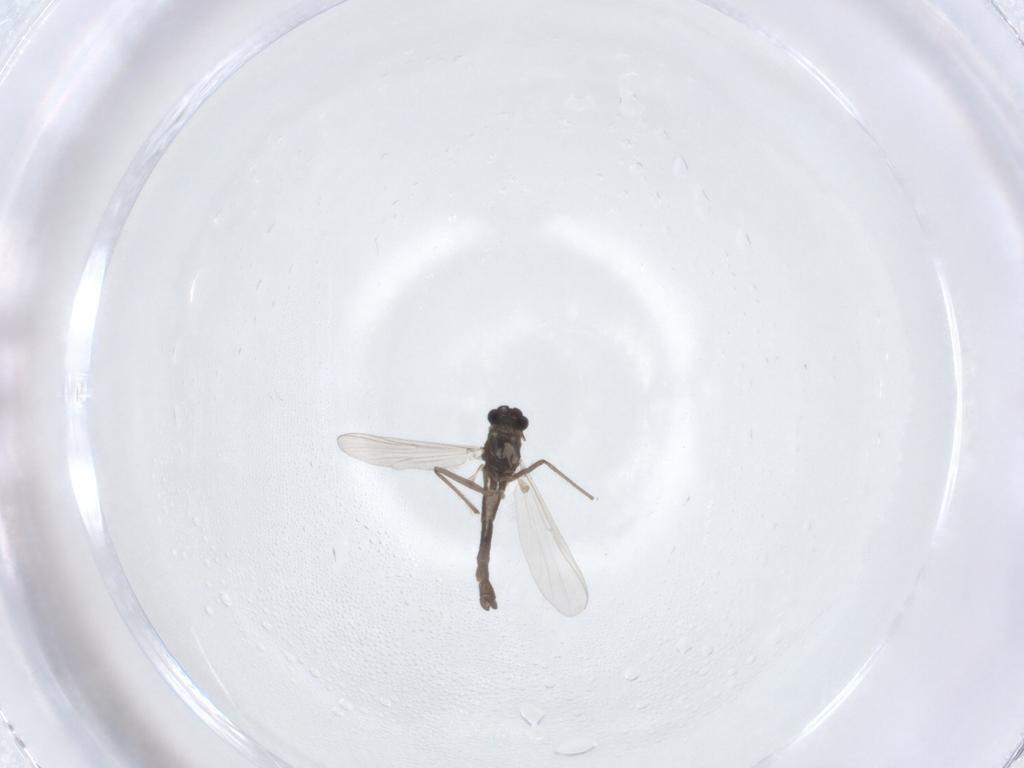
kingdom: Animalia
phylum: Arthropoda
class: Insecta
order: Diptera
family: Chironomidae
